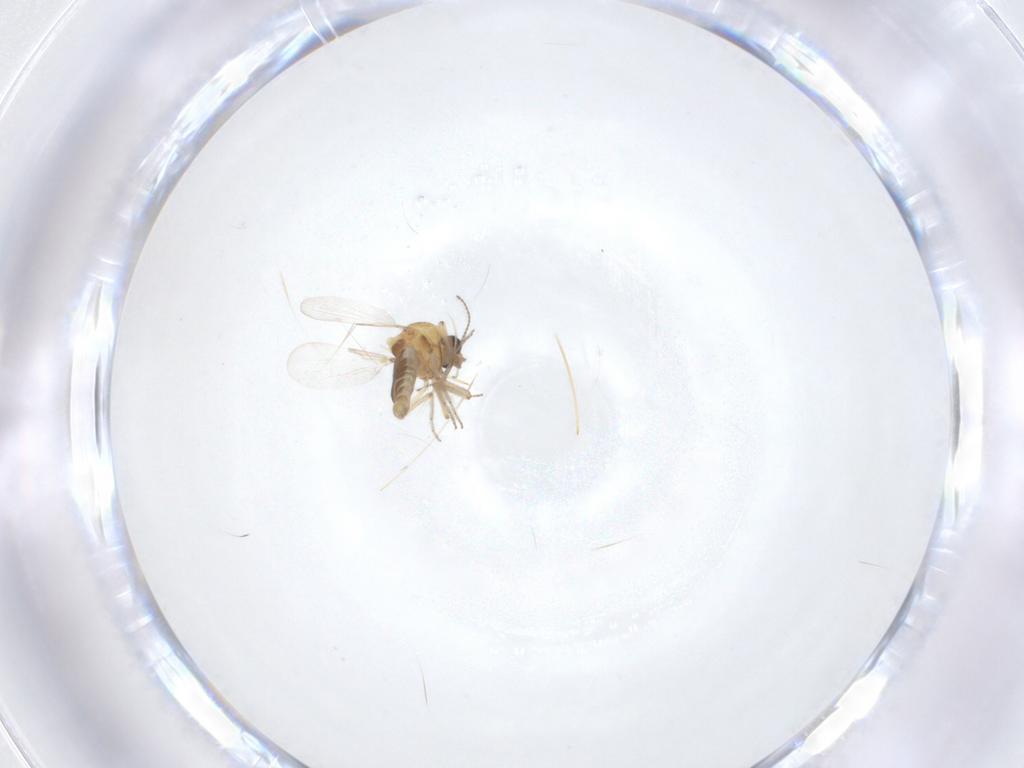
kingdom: Animalia
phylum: Arthropoda
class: Insecta
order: Diptera
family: Ceratopogonidae
